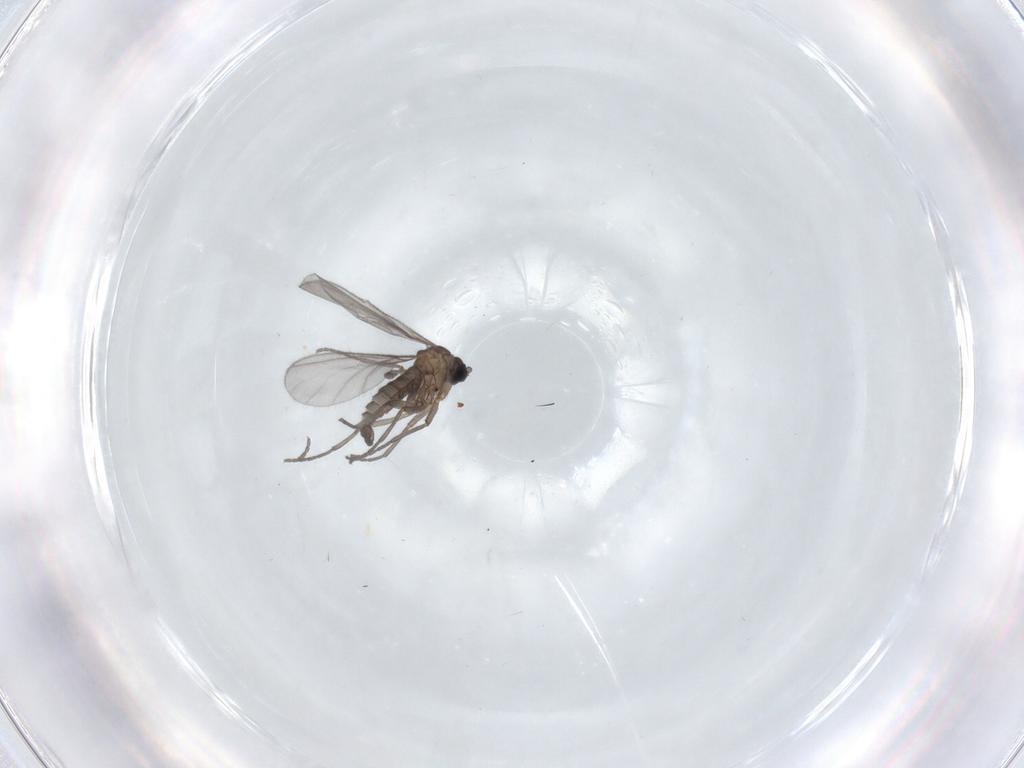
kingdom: Animalia
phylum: Arthropoda
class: Insecta
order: Diptera
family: Sciaridae
